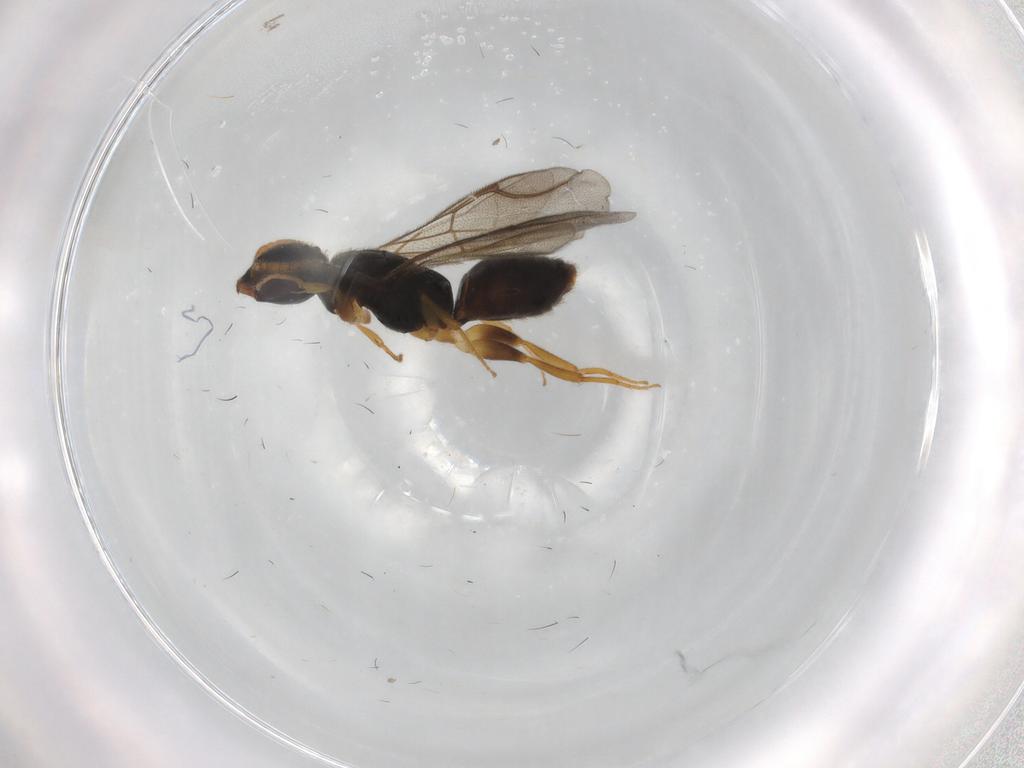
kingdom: Animalia
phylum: Arthropoda
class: Insecta
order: Hymenoptera
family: Bethylidae
